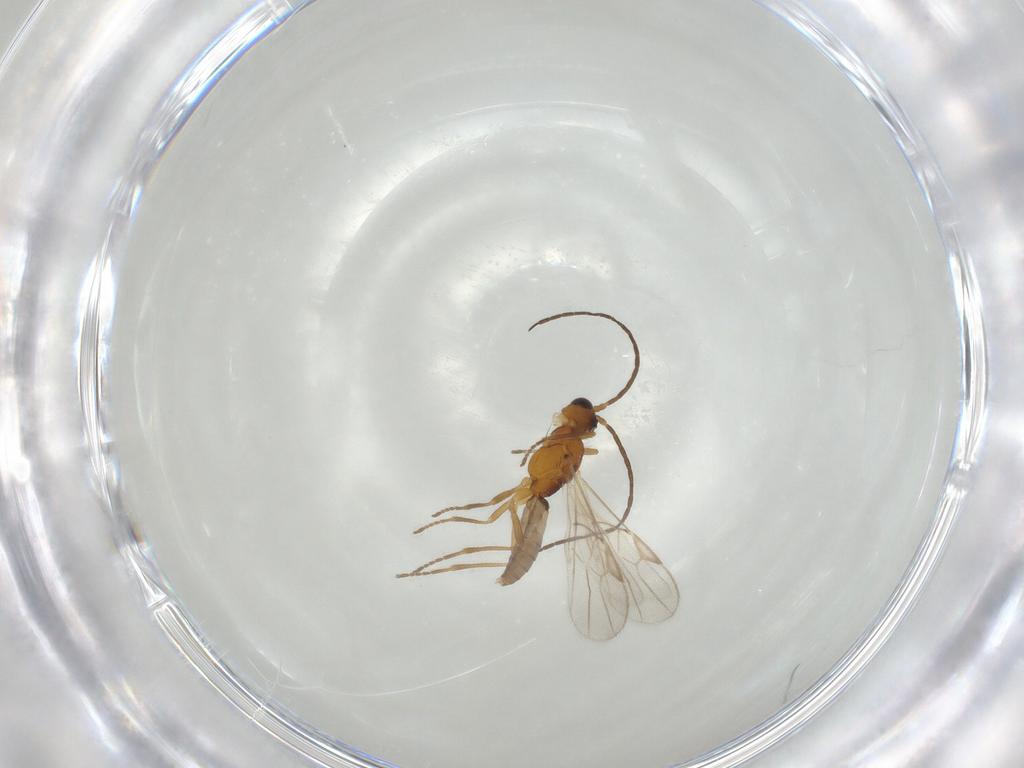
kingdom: Animalia
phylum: Arthropoda
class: Insecta
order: Hymenoptera
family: Braconidae
